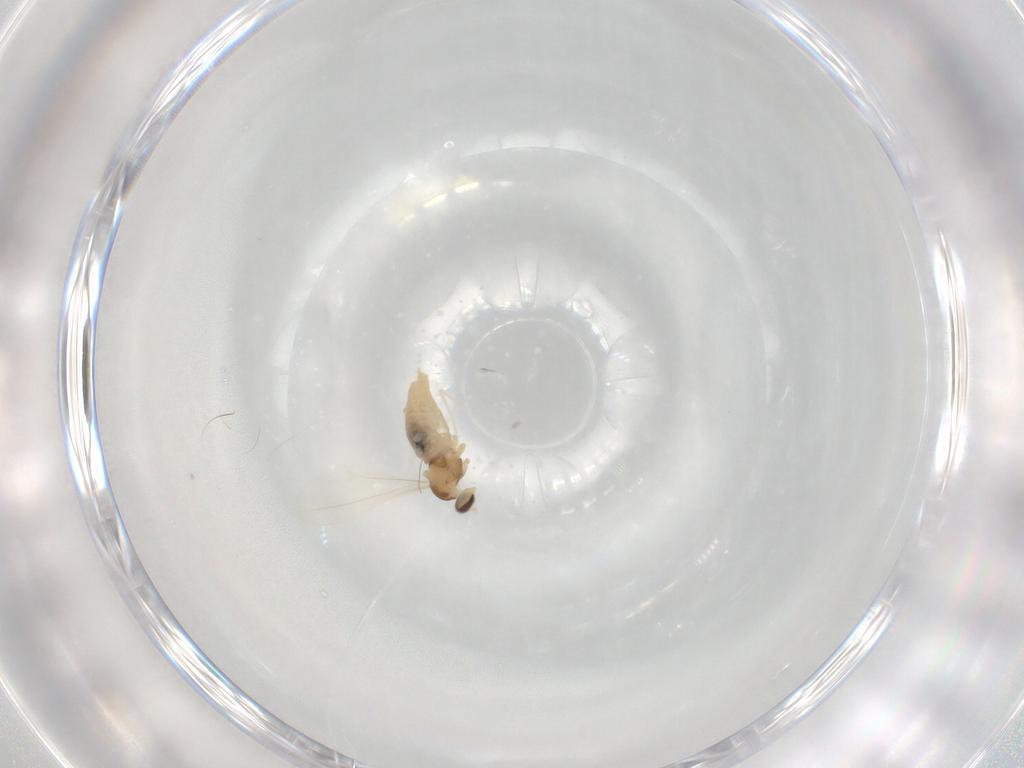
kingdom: Animalia
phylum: Arthropoda
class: Insecta
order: Diptera
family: Cecidomyiidae
